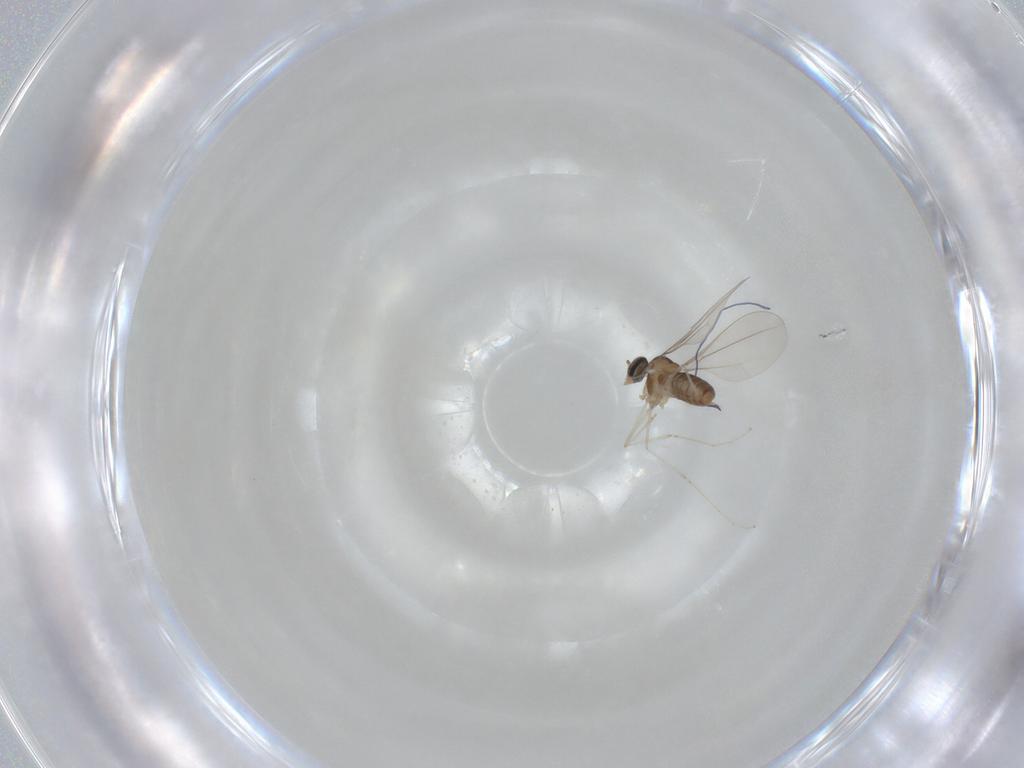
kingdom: Animalia
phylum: Arthropoda
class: Insecta
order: Diptera
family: Cecidomyiidae
